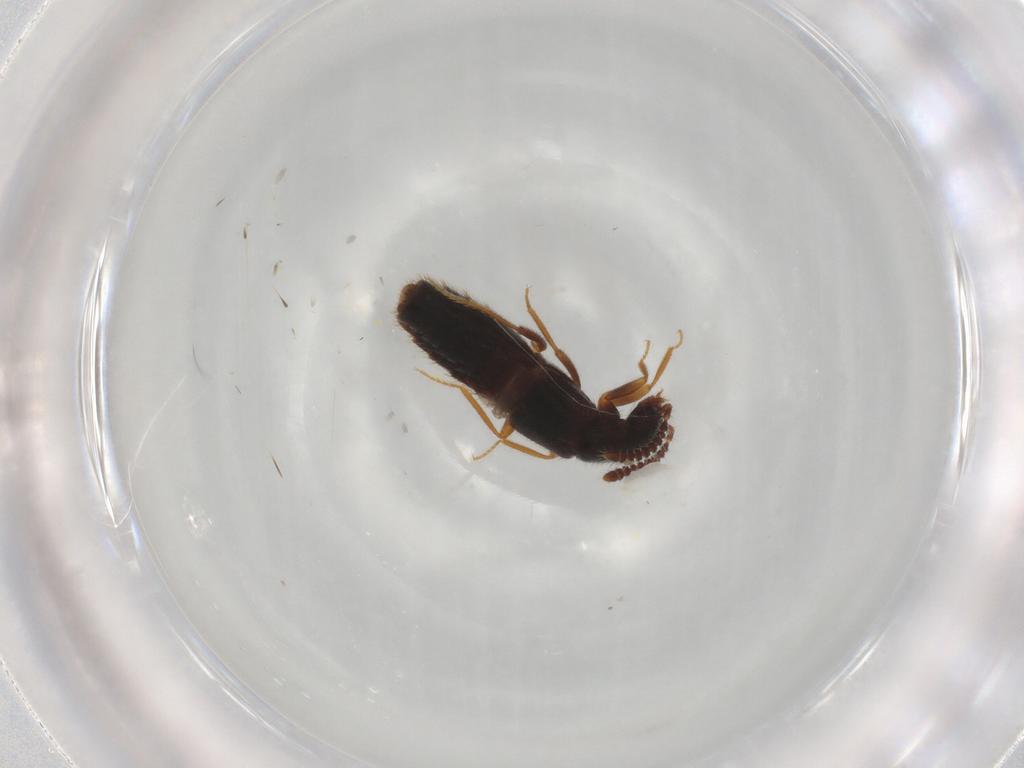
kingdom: Animalia
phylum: Arthropoda
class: Insecta
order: Coleoptera
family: Staphylinidae
